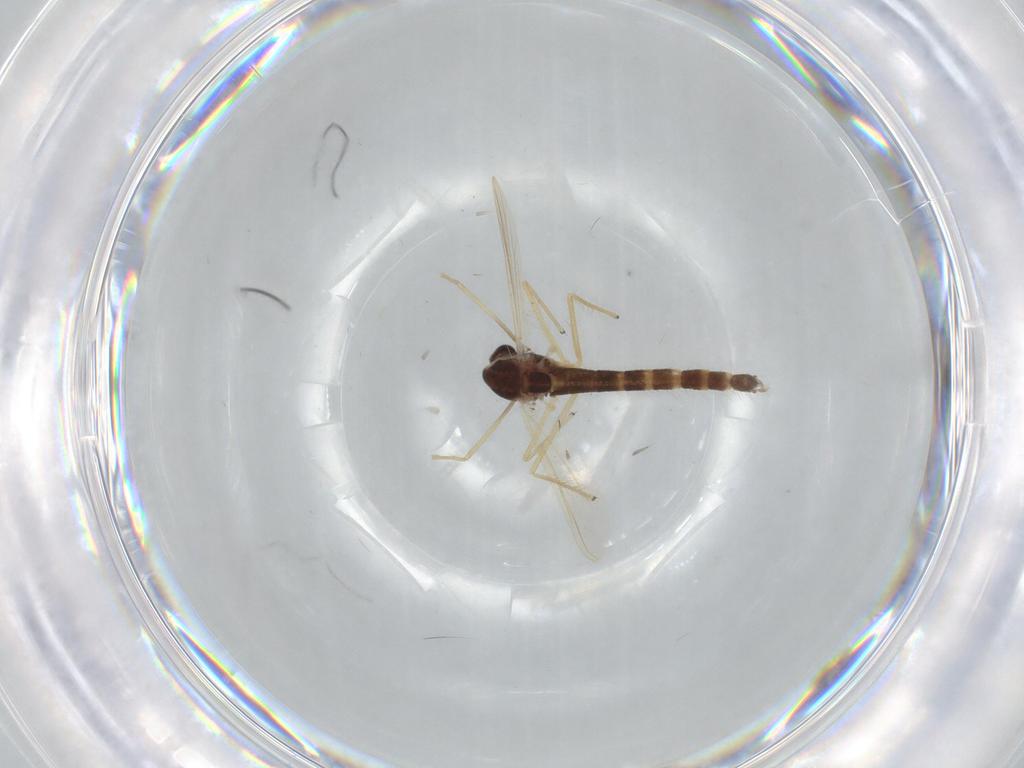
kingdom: Animalia
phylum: Arthropoda
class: Insecta
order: Diptera
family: Chironomidae
